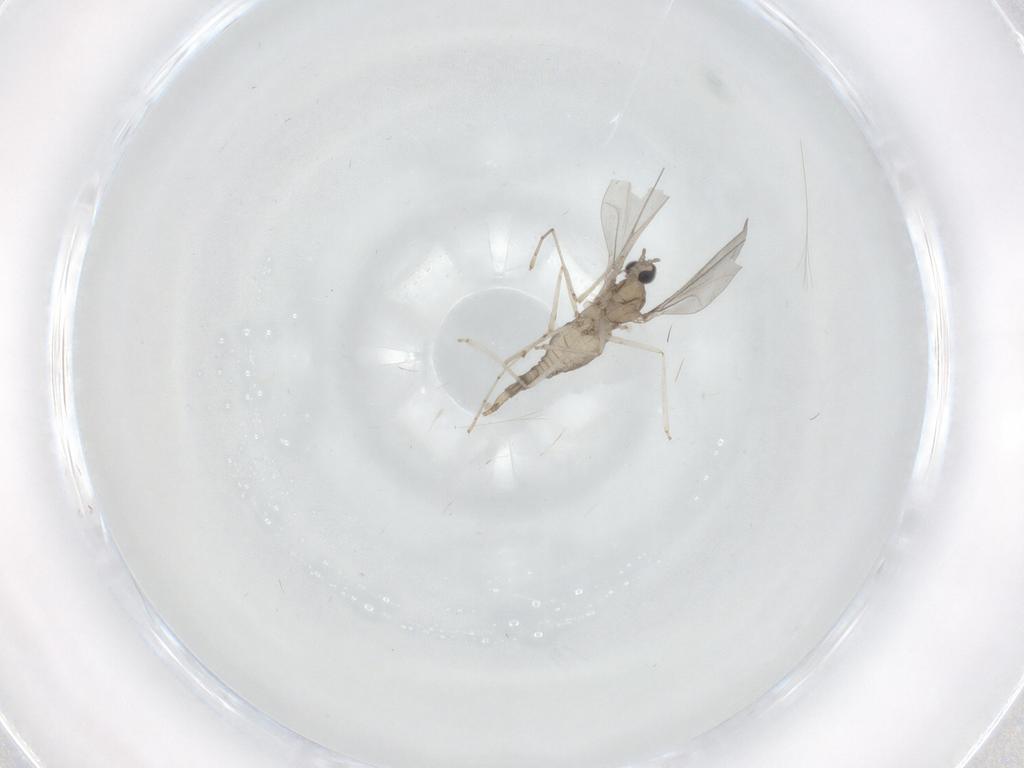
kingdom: Animalia
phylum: Arthropoda
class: Insecta
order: Diptera
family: Cecidomyiidae
